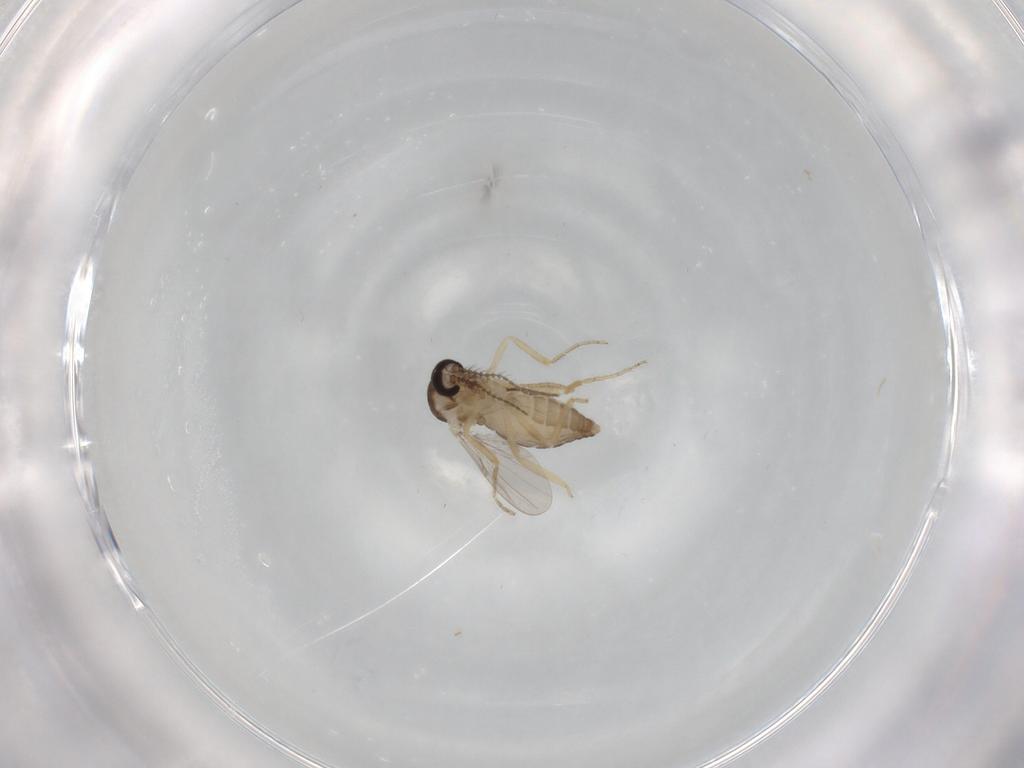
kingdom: Animalia
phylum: Arthropoda
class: Insecta
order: Diptera
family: Ceratopogonidae
